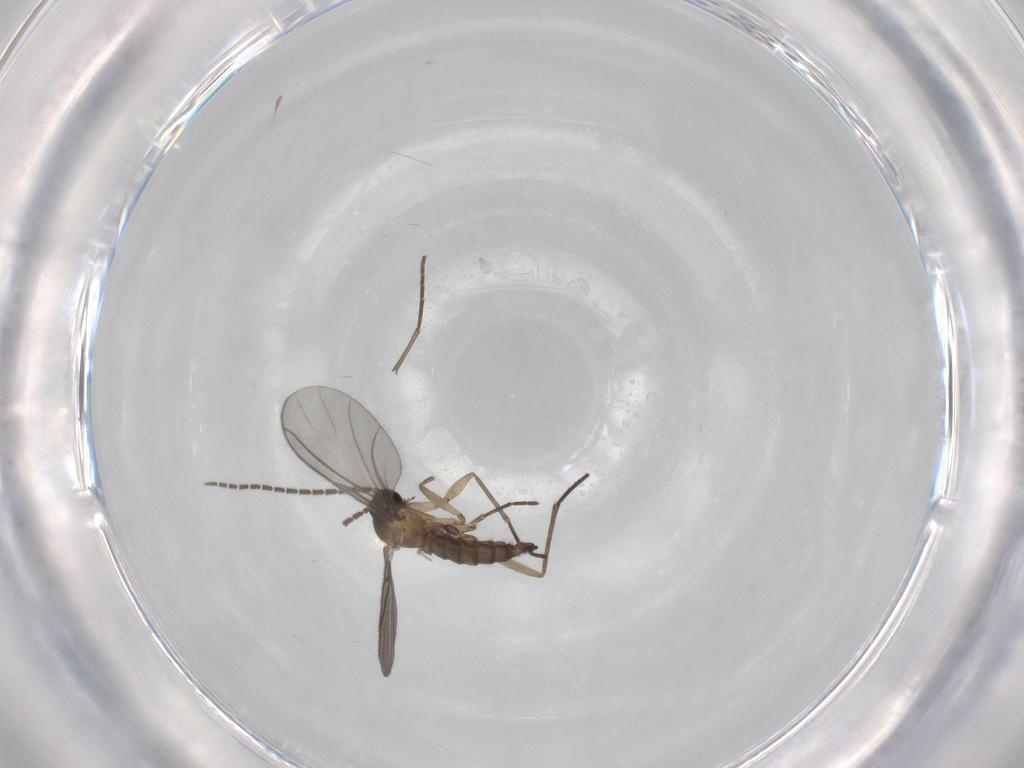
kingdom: Animalia
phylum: Arthropoda
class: Insecta
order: Diptera
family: Sciaridae
